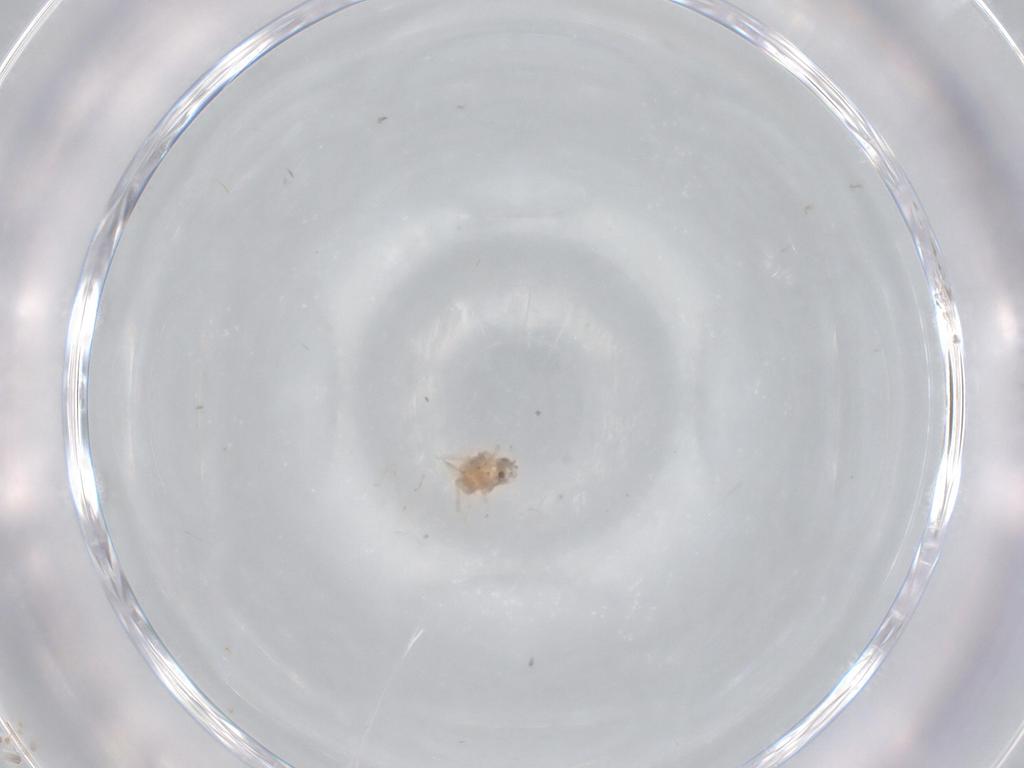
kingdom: Animalia
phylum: Arthropoda
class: Insecta
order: Hemiptera
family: Aleyrodidae
